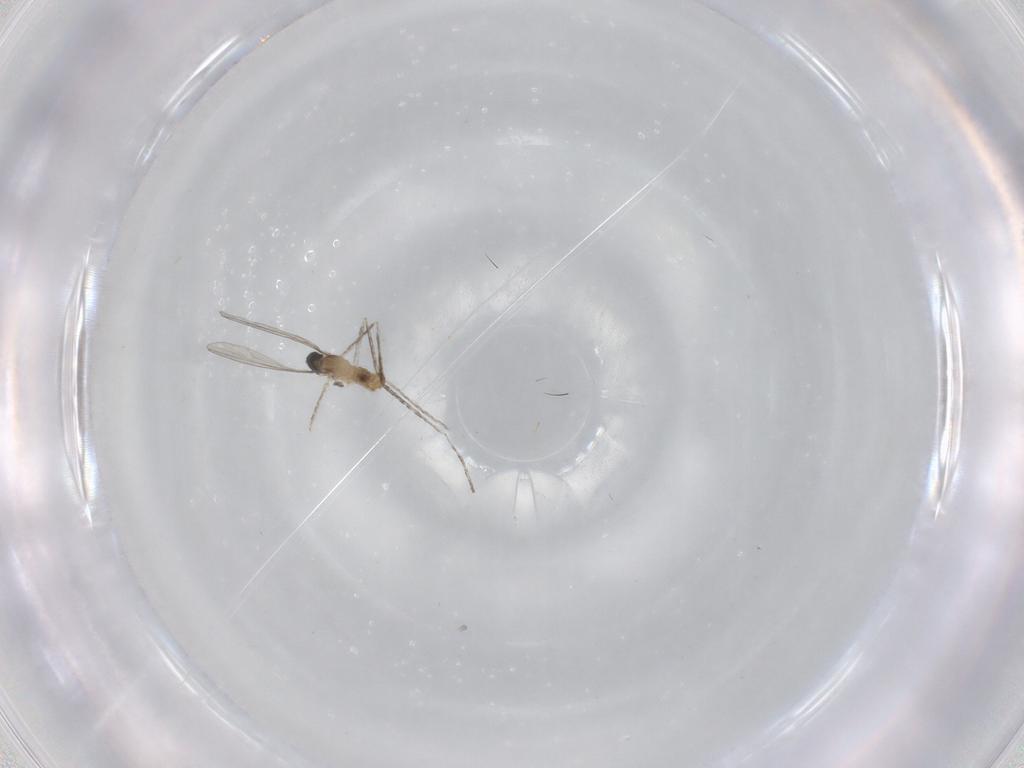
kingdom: Animalia
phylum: Arthropoda
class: Insecta
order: Diptera
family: Cecidomyiidae
